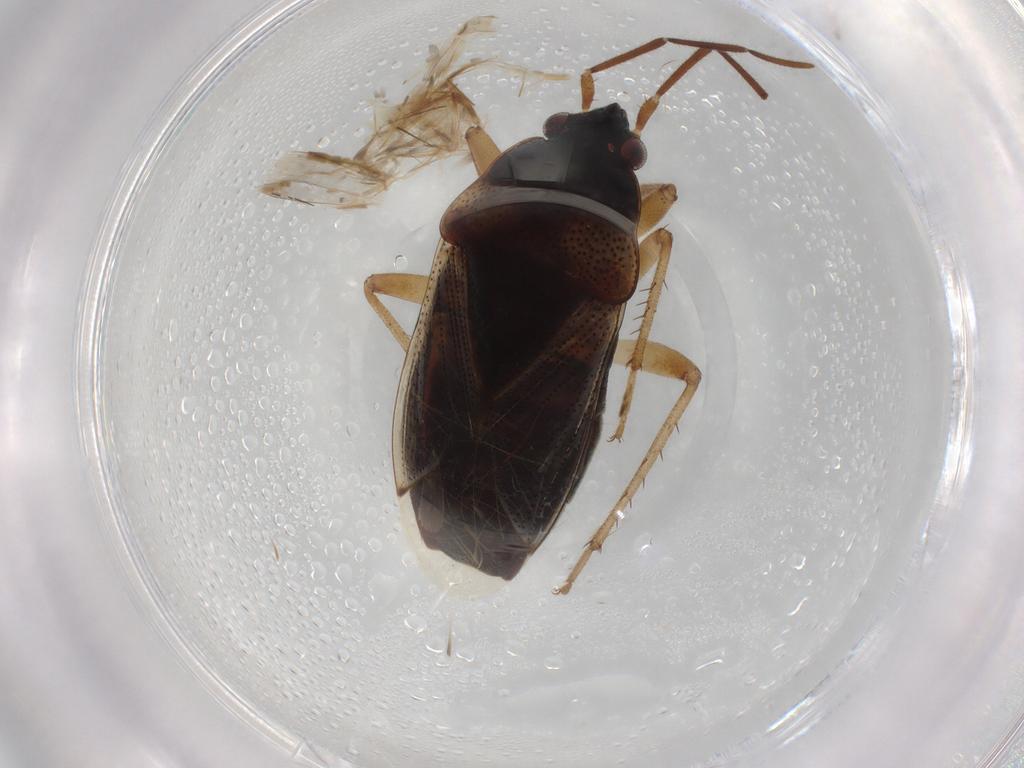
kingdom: Animalia
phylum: Arthropoda
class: Insecta
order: Hemiptera
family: Rhyparochromidae
